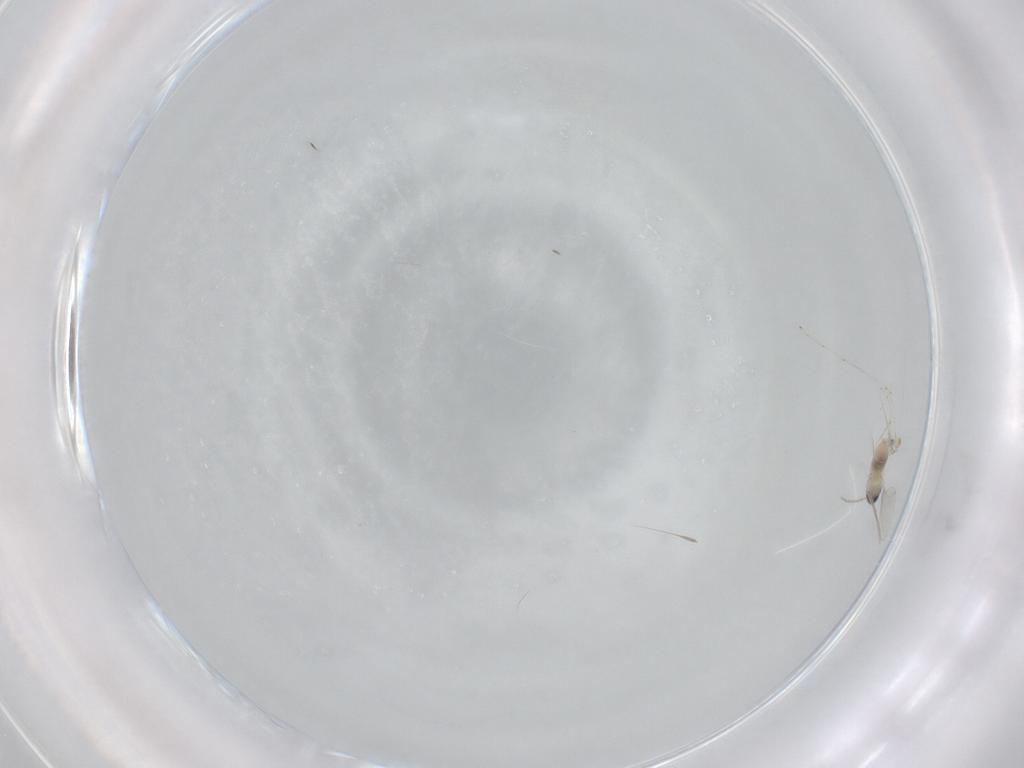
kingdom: Animalia
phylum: Arthropoda
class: Insecta
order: Diptera
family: Cecidomyiidae
